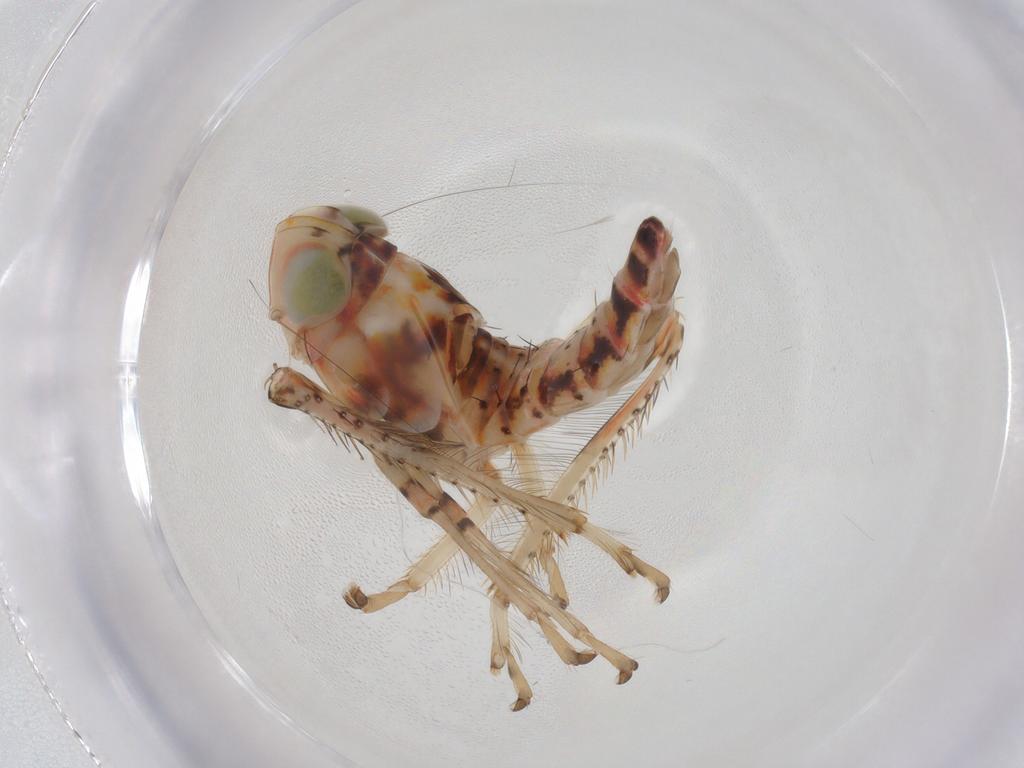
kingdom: Animalia
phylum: Arthropoda
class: Insecta
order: Hemiptera
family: Cicadellidae
